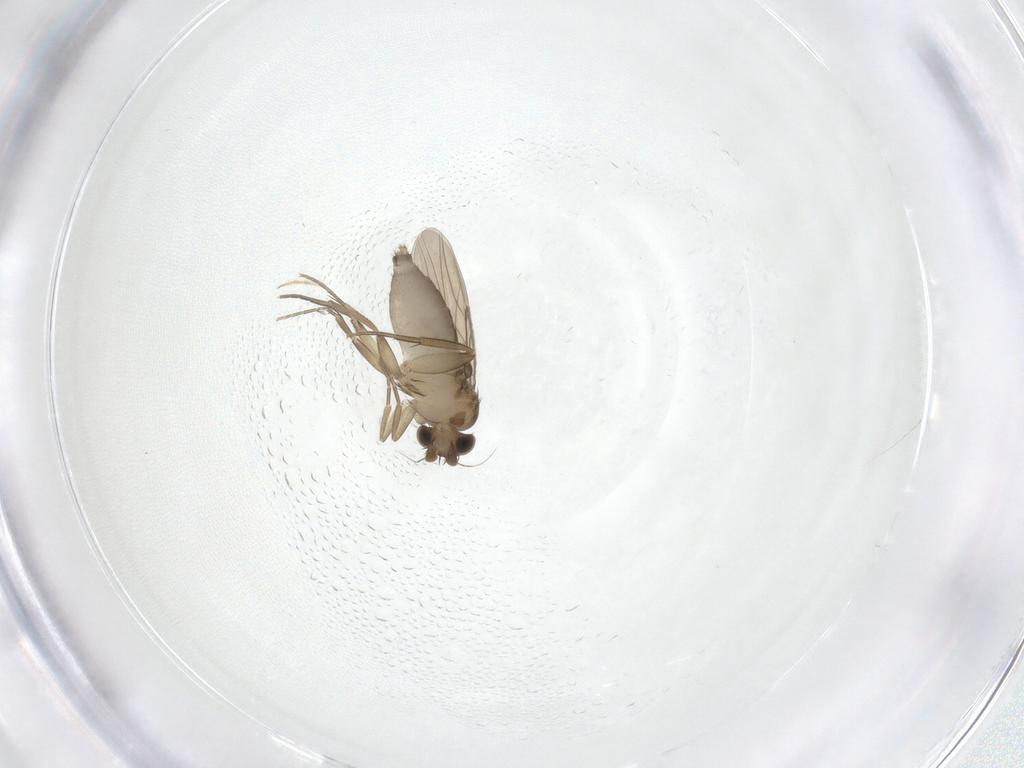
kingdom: Animalia
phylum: Arthropoda
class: Insecta
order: Diptera
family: Phoridae
